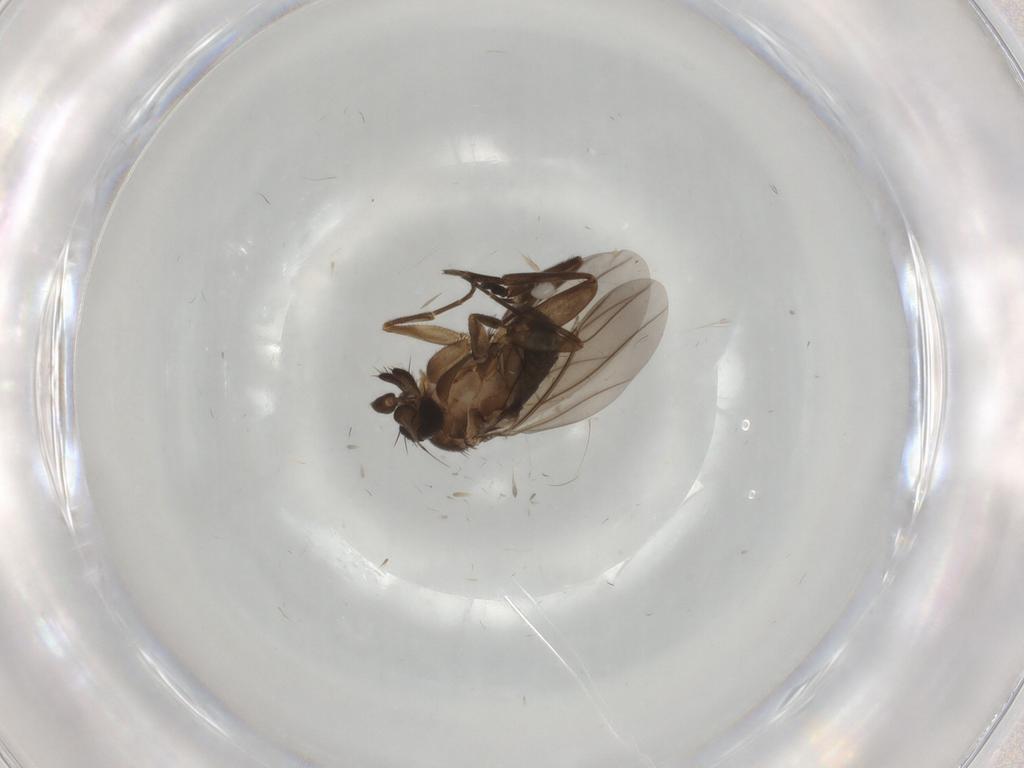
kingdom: Animalia
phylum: Arthropoda
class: Insecta
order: Diptera
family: Phoridae
